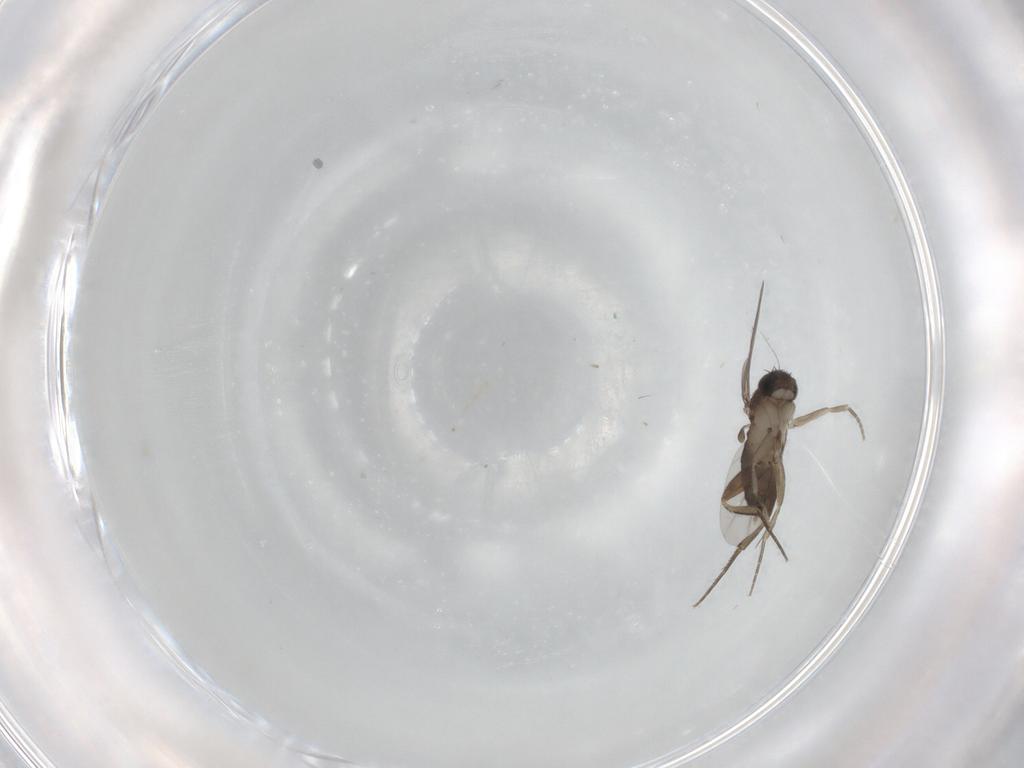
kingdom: Animalia
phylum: Arthropoda
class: Insecta
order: Diptera
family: Phoridae
